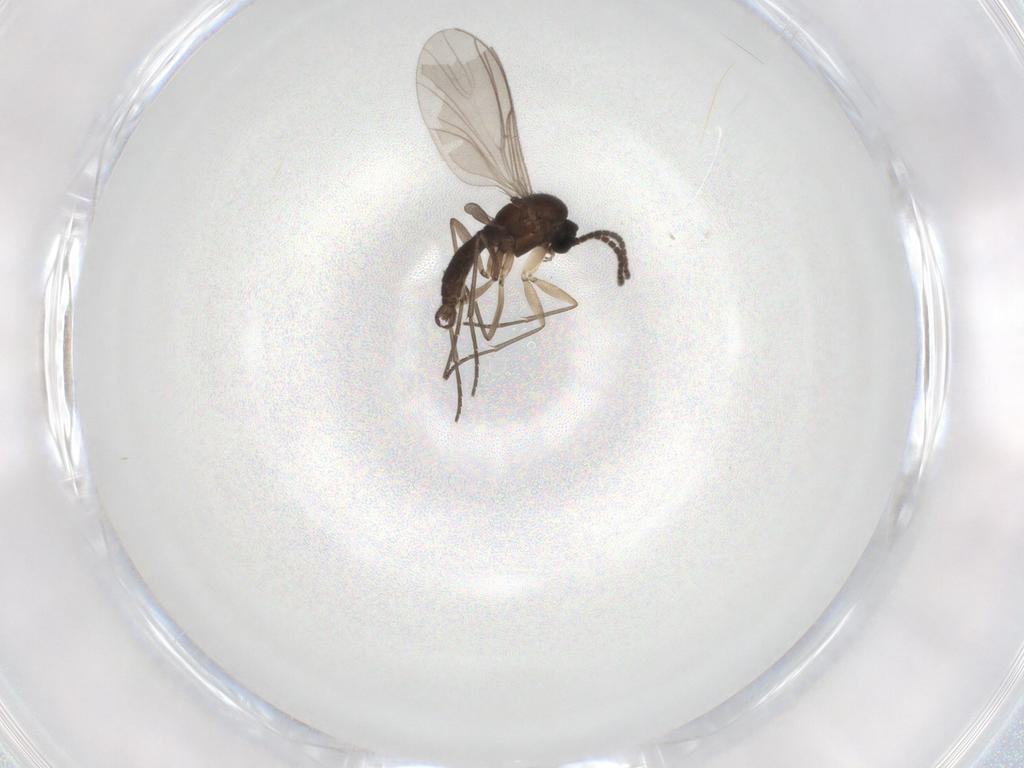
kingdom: Animalia
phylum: Arthropoda
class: Insecta
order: Diptera
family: Sciaridae
